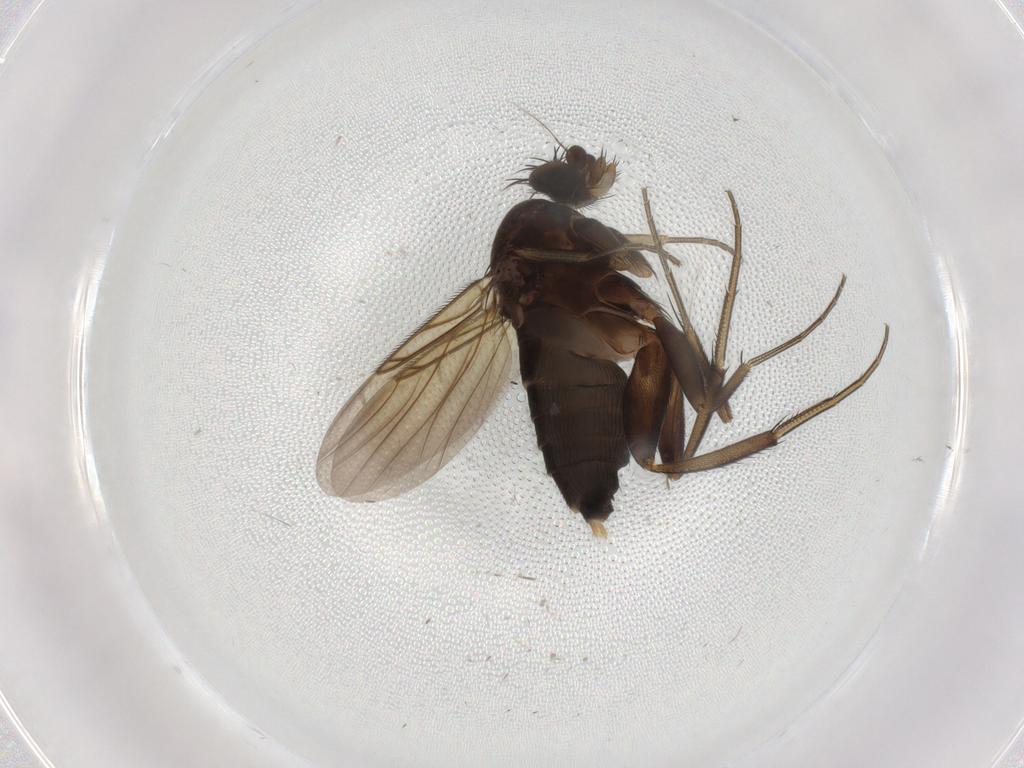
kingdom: Animalia
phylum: Arthropoda
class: Insecta
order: Diptera
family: Phoridae
